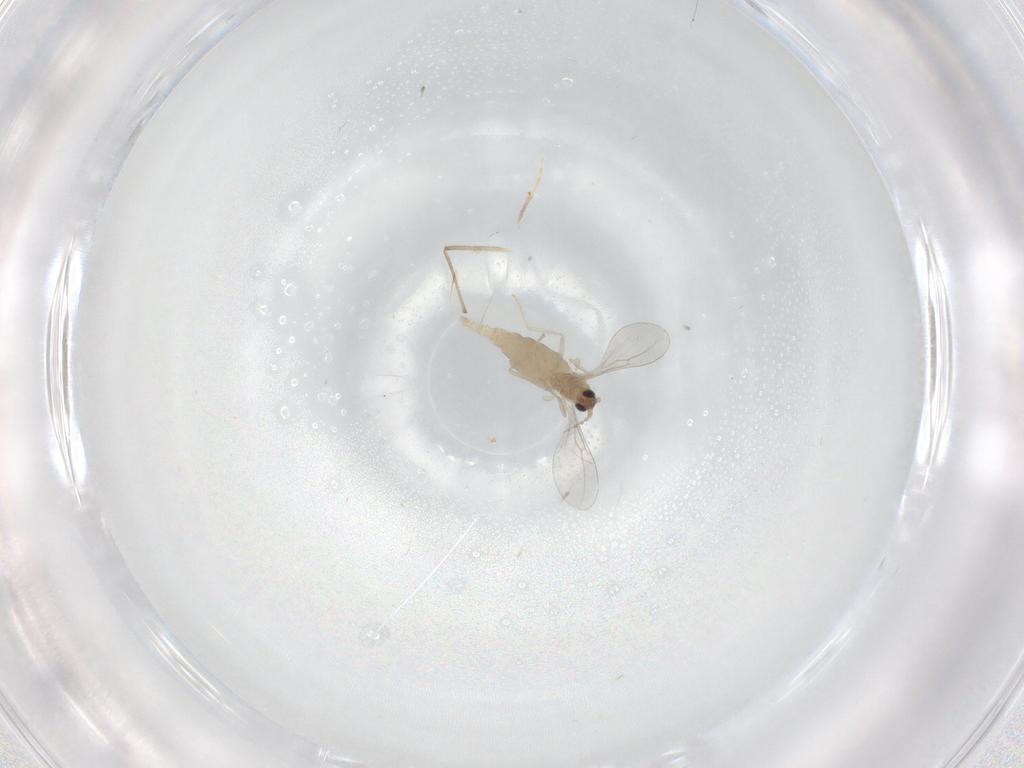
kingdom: Animalia
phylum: Arthropoda
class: Insecta
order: Diptera
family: Cecidomyiidae
